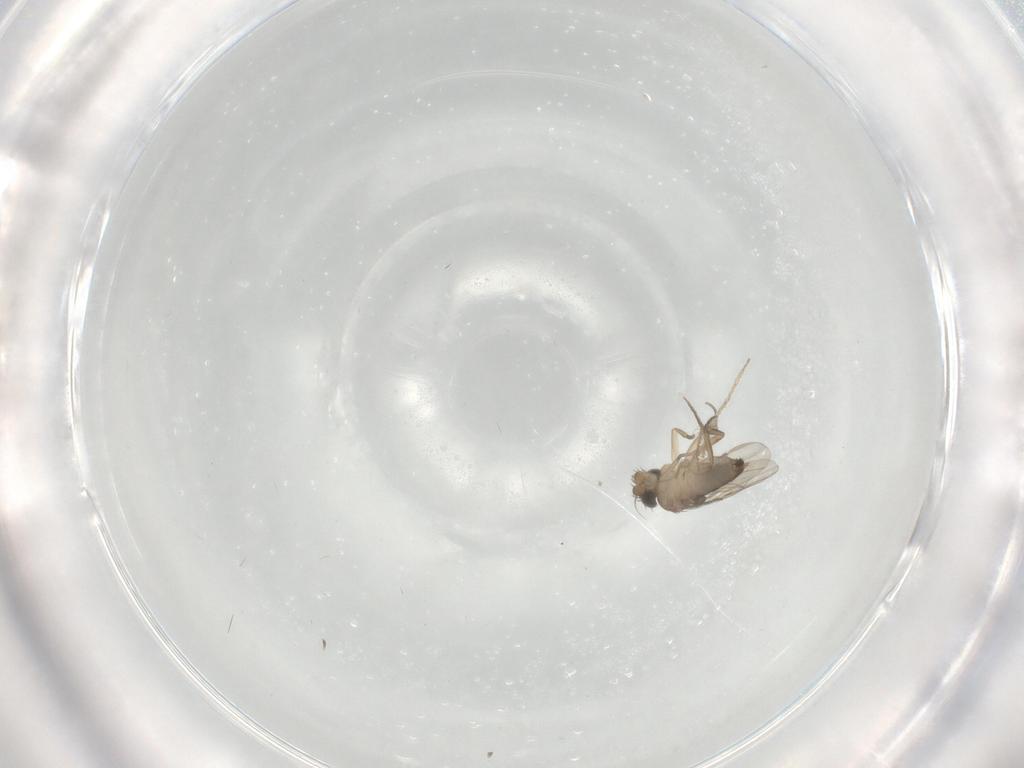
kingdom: Animalia
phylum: Arthropoda
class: Insecta
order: Diptera
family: Phoridae
